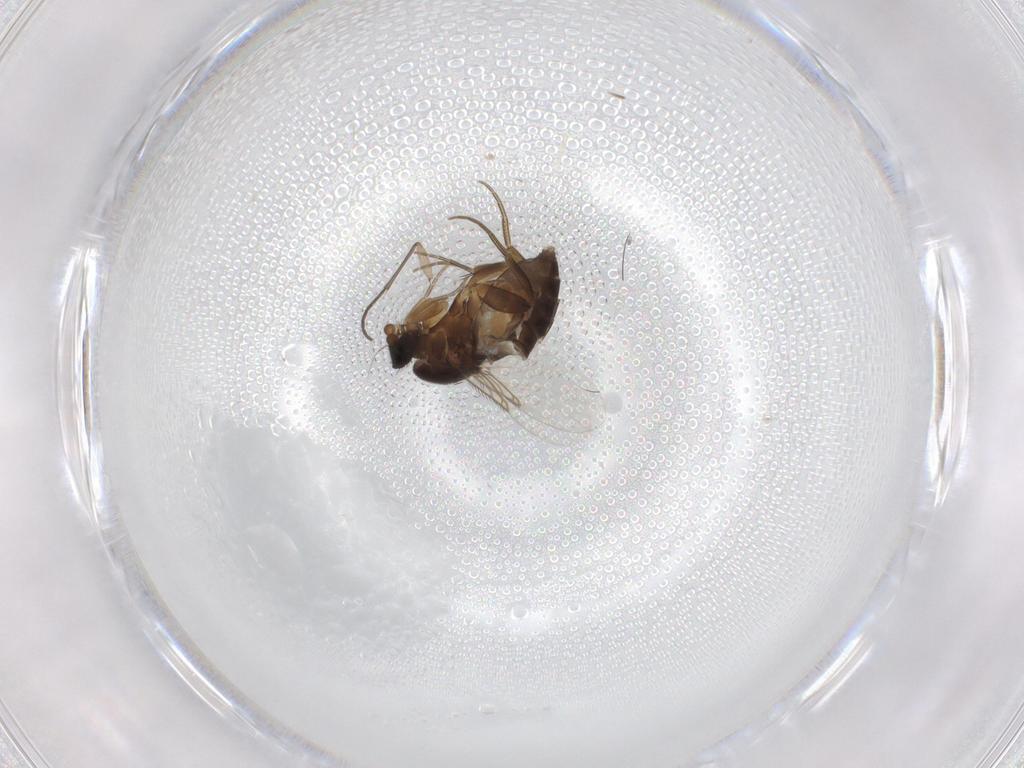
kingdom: Animalia
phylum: Arthropoda
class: Insecta
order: Diptera
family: Phoridae
